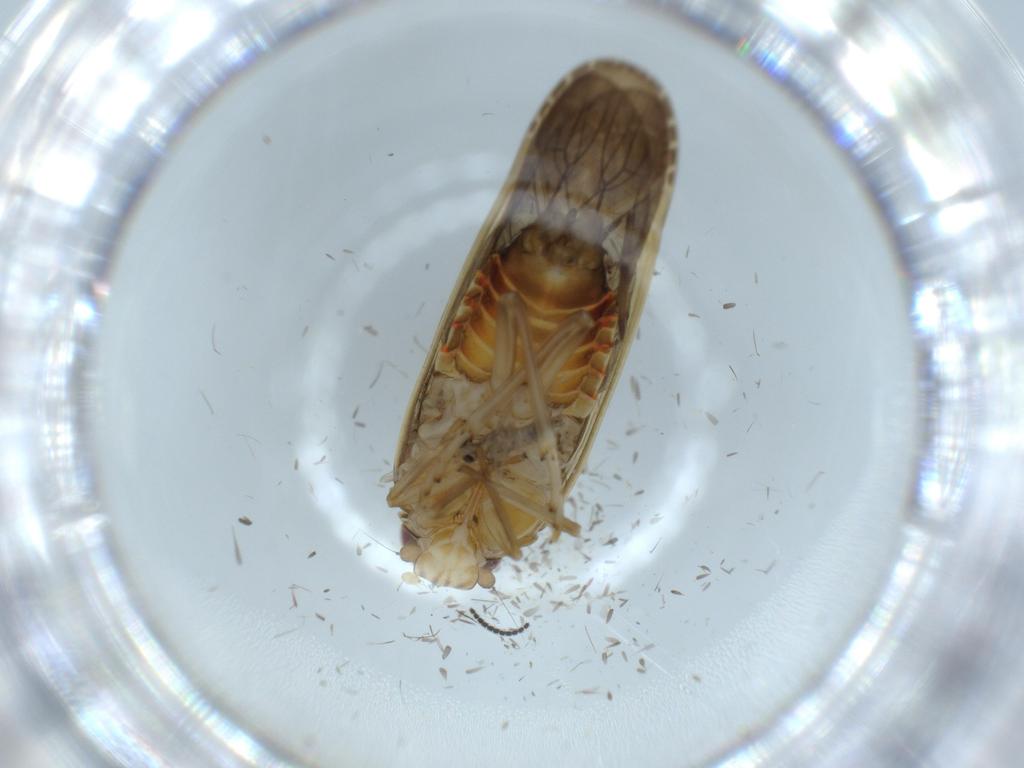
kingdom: Animalia
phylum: Arthropoda
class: Insecta
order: Hemiptera
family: Achilidae
